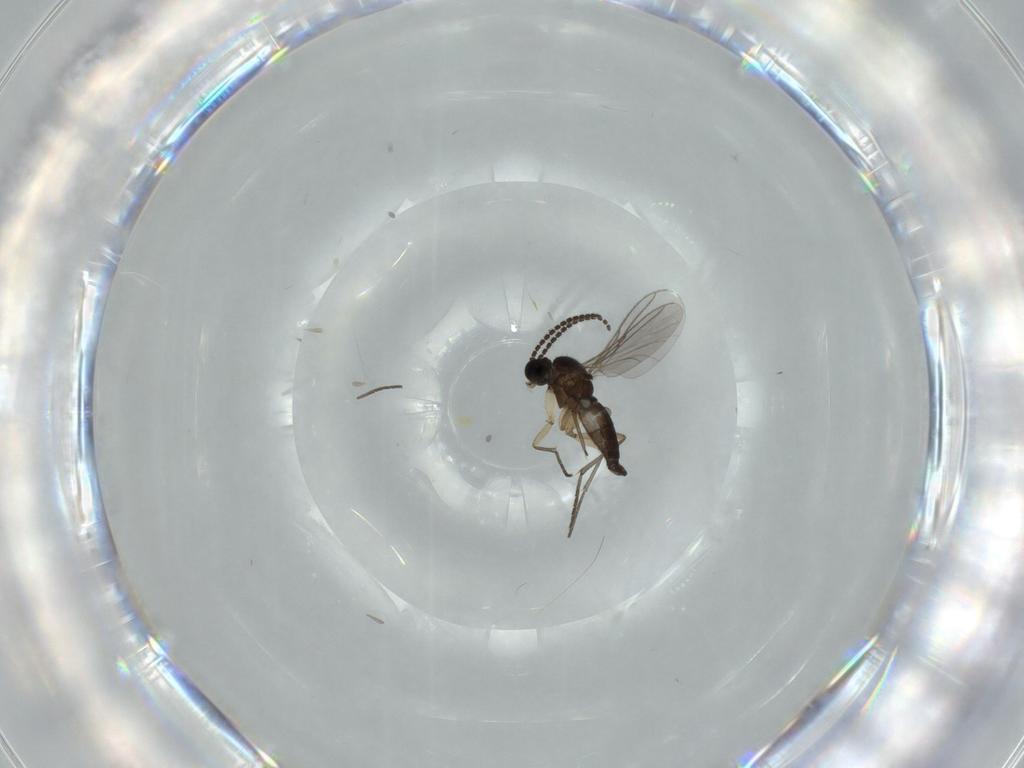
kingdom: Animalia
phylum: Arthropoda
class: Insecta
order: Diptera
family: Sciaridae
